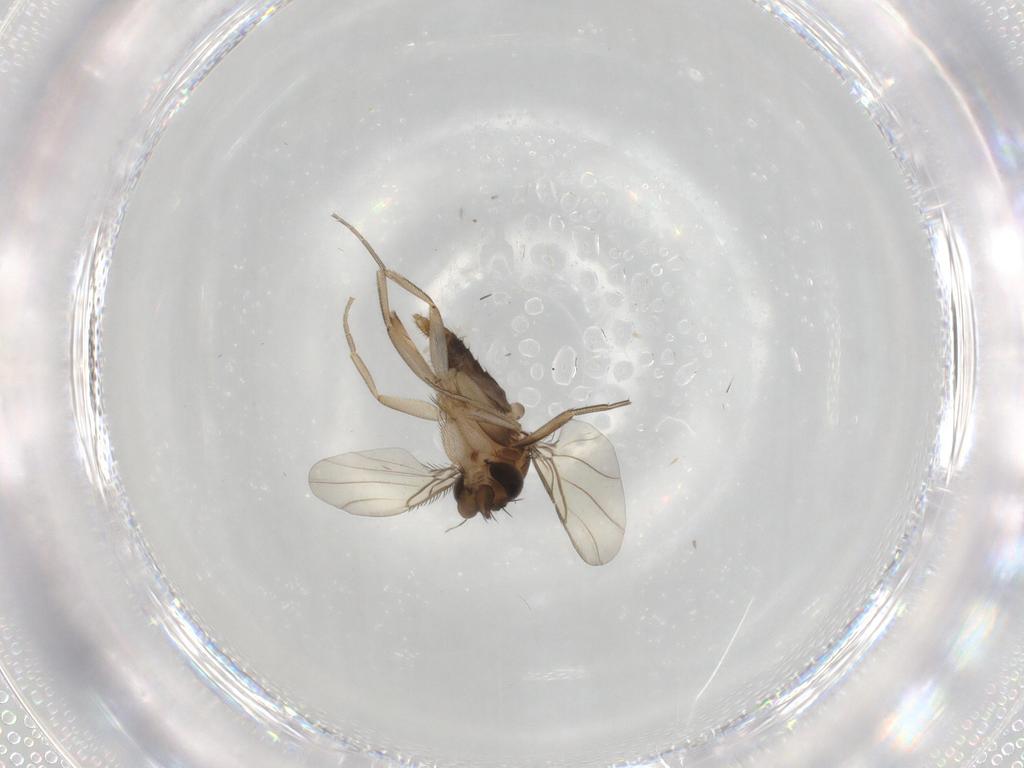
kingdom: Animalia
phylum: Arthropoda
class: Insecta
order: Diptera
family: Phoridae
